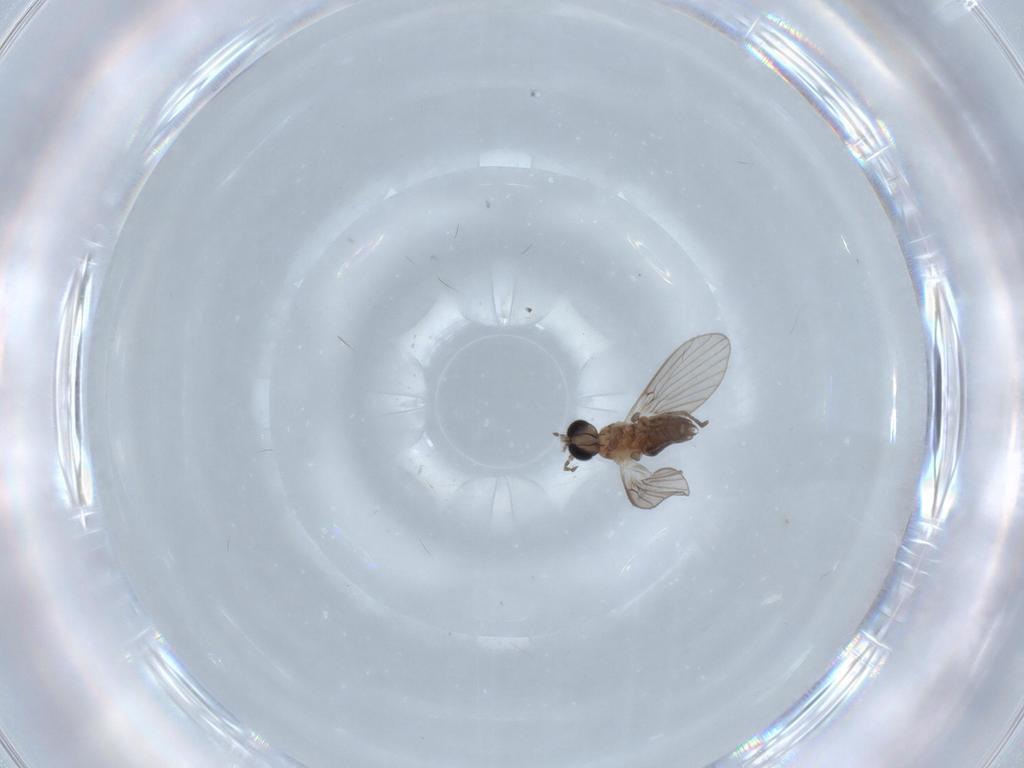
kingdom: Animalia
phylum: Arthropoda
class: Insecta
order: Diptera
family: Psychodidae
